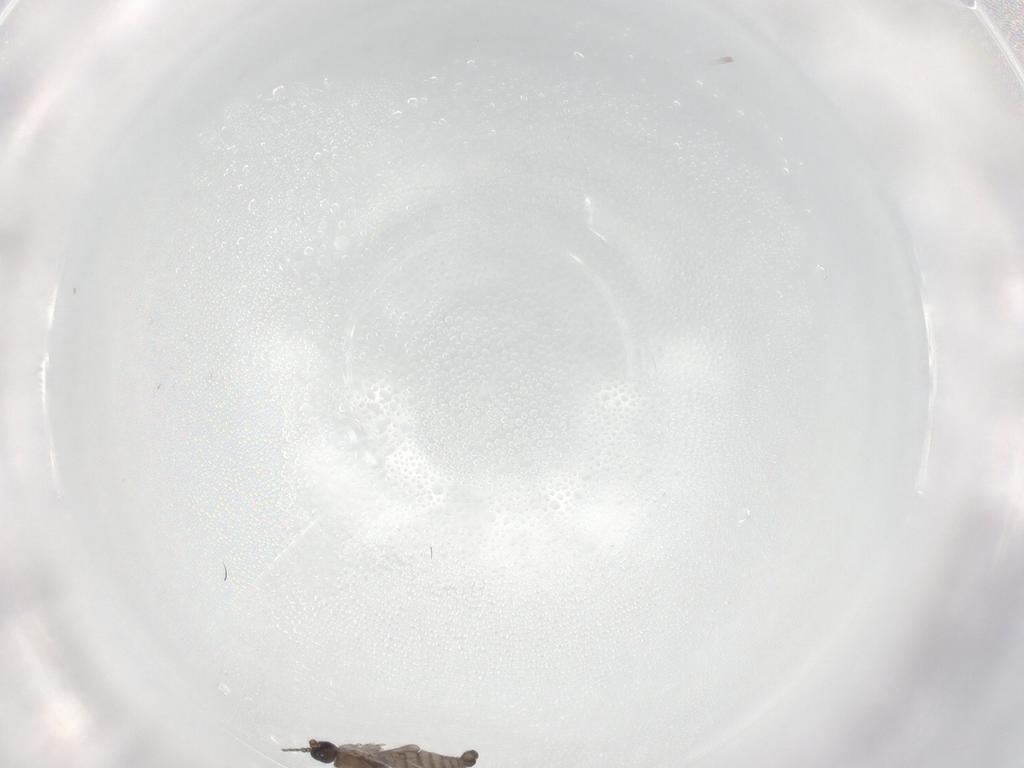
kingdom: Animalia
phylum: Arthropoda
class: Insecta
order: Diptera
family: Sciaridae
